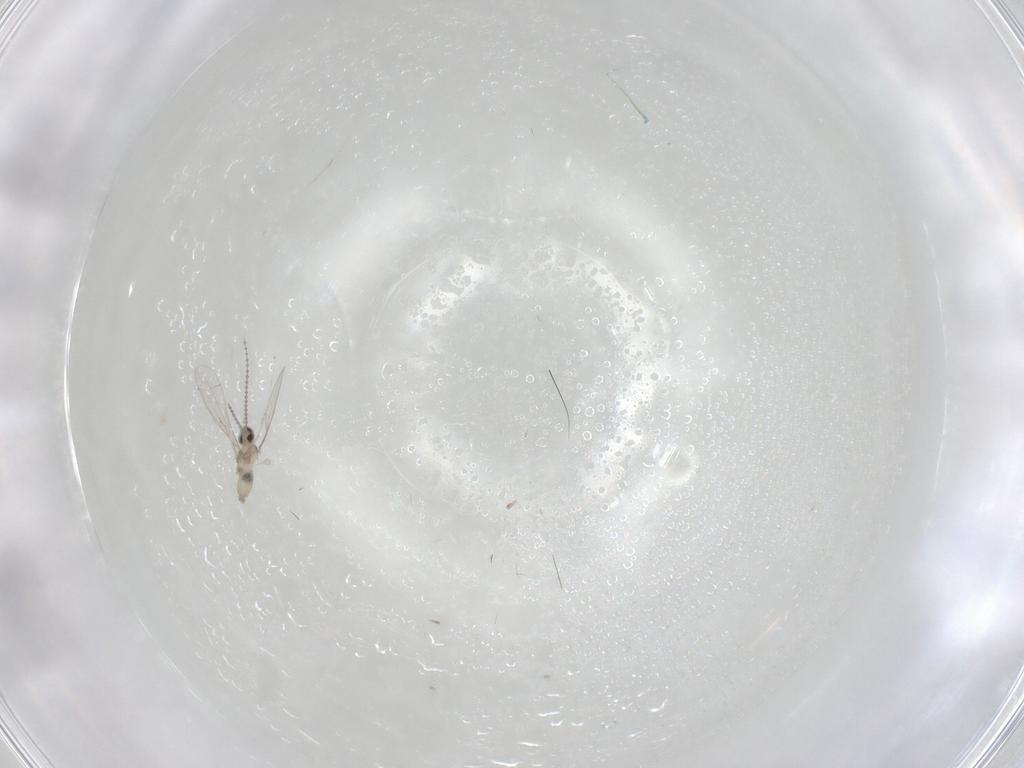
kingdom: Animalia
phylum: Arthropoda
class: Insecta
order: Diptera
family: Cecidomyiidae
